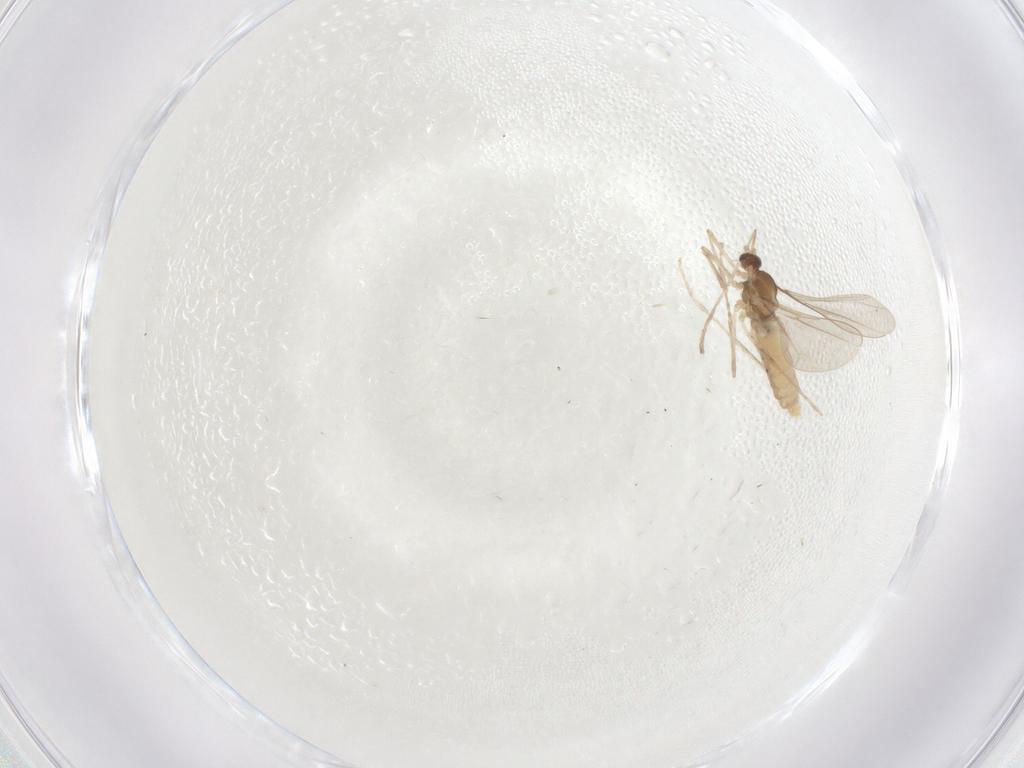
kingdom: Animalia
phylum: Arthropoda
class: Insecta
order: Diptera
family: Cecidomyiidae
